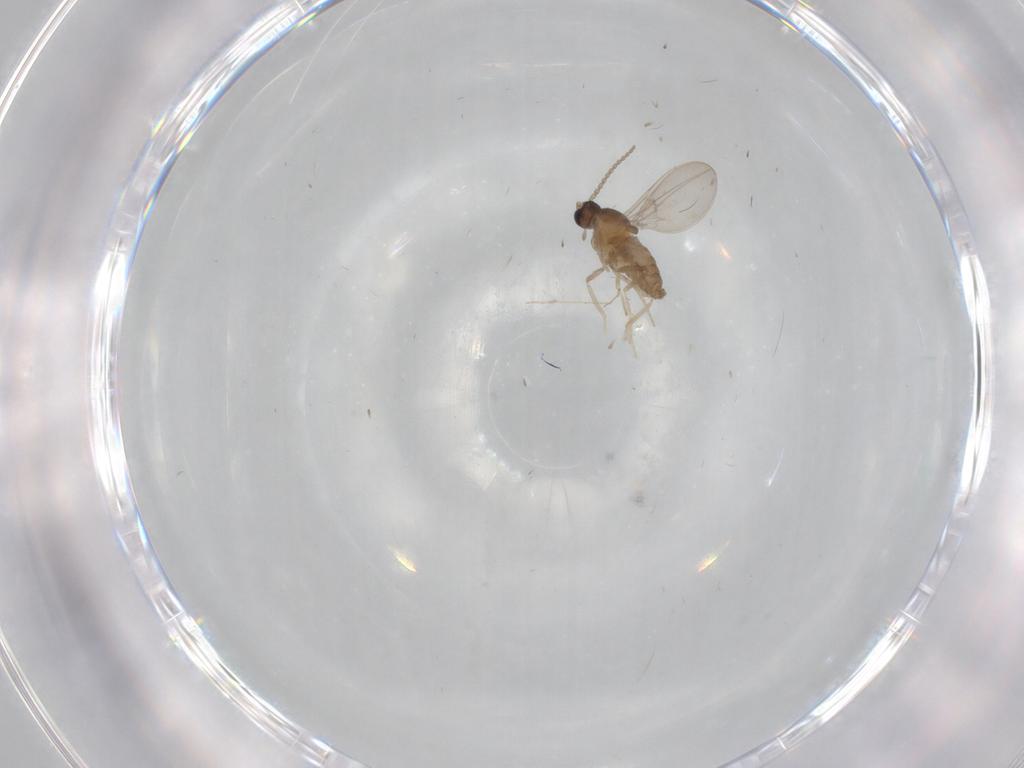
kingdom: Animalia
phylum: Arthropoda
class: Insecta
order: Diptera
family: Cecidomyiidae
